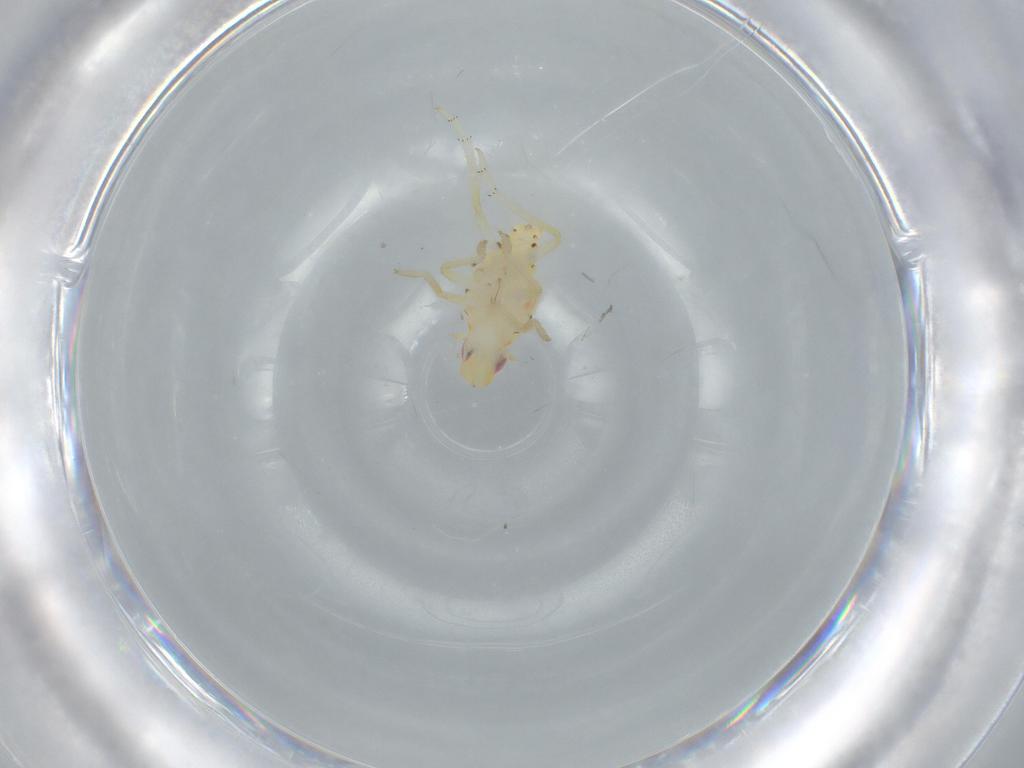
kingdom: Animalia
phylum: Arthropoda
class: Insecta
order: Hemiptera
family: Tropiduchidae
